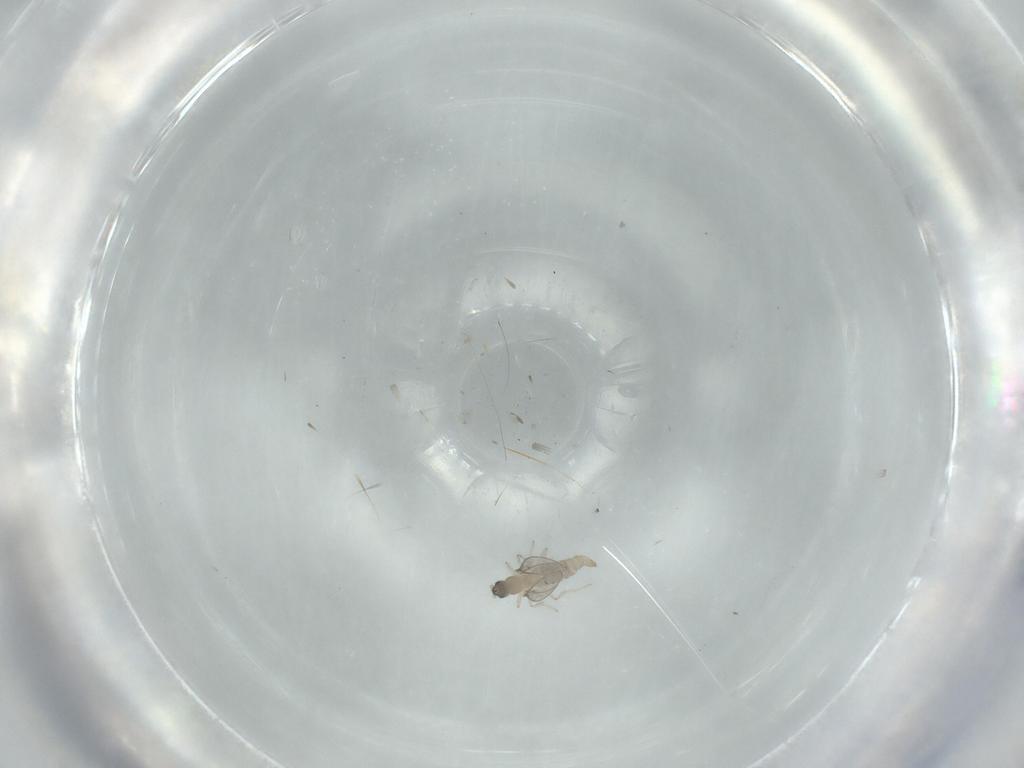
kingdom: Animalia
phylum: Arthropoda
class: Insecta
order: Diptera
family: Cecidomyiidae
